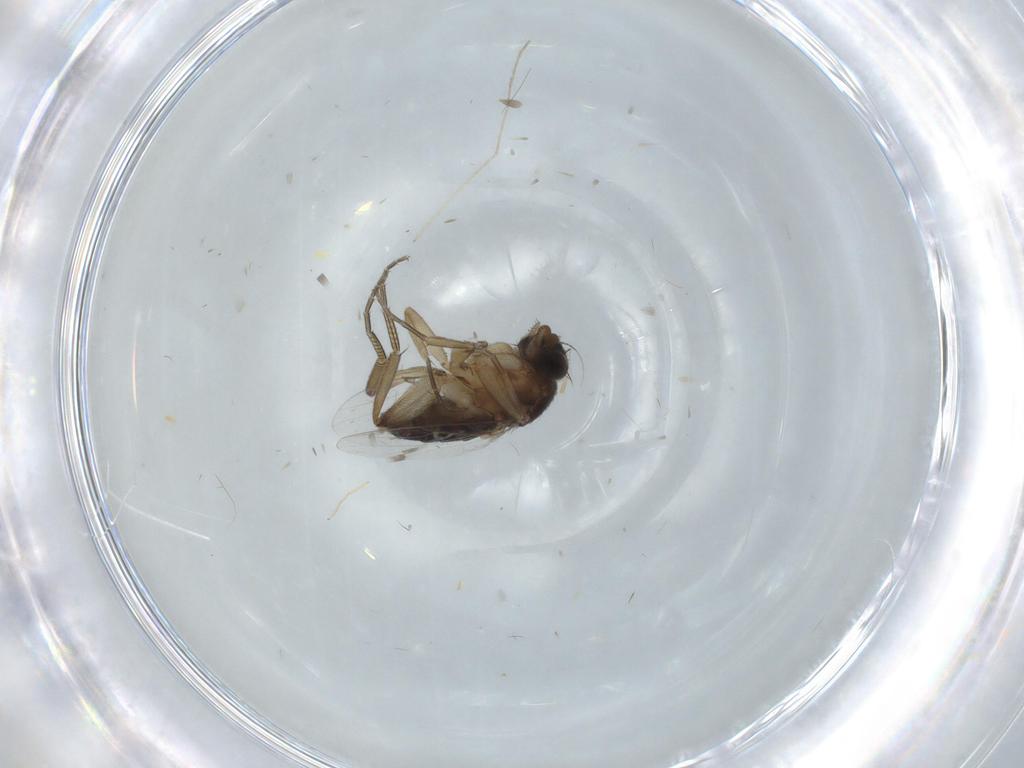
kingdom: Animalia
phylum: Arthropoda
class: Insecta
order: Diptera
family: Phoridae
